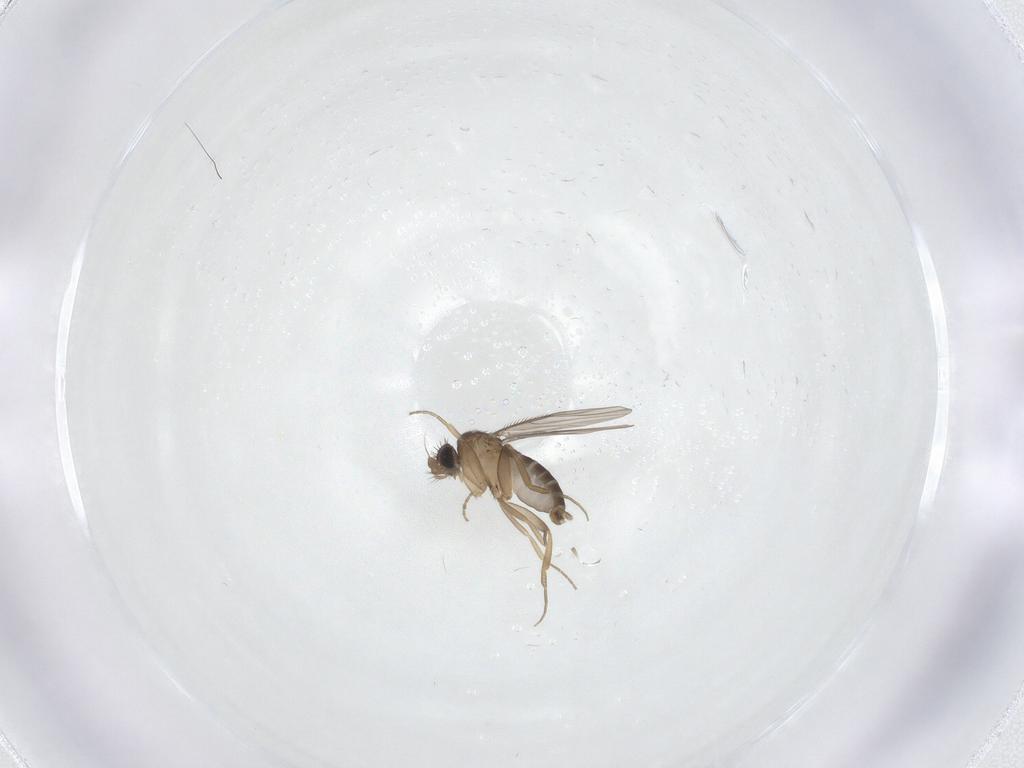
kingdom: Animalia
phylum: Arthropoda
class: Insecta
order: Diptera
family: Phoridae
